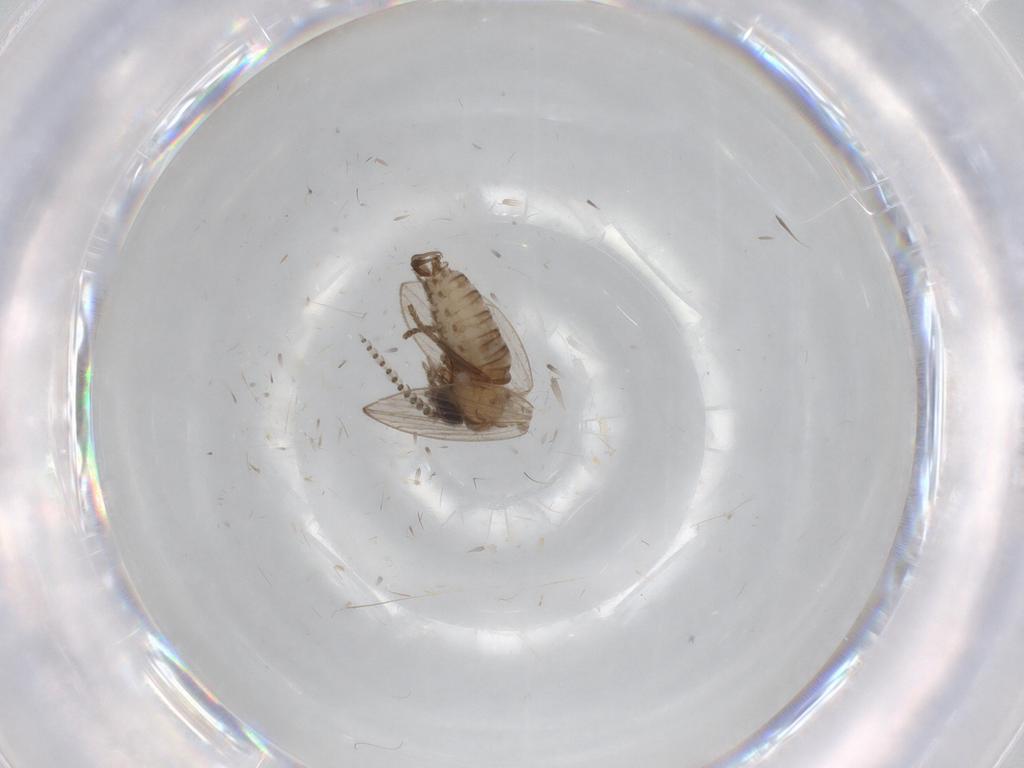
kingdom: Animalia
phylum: Arthropoda
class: Insecta
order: Diptera
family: Psychodidae
